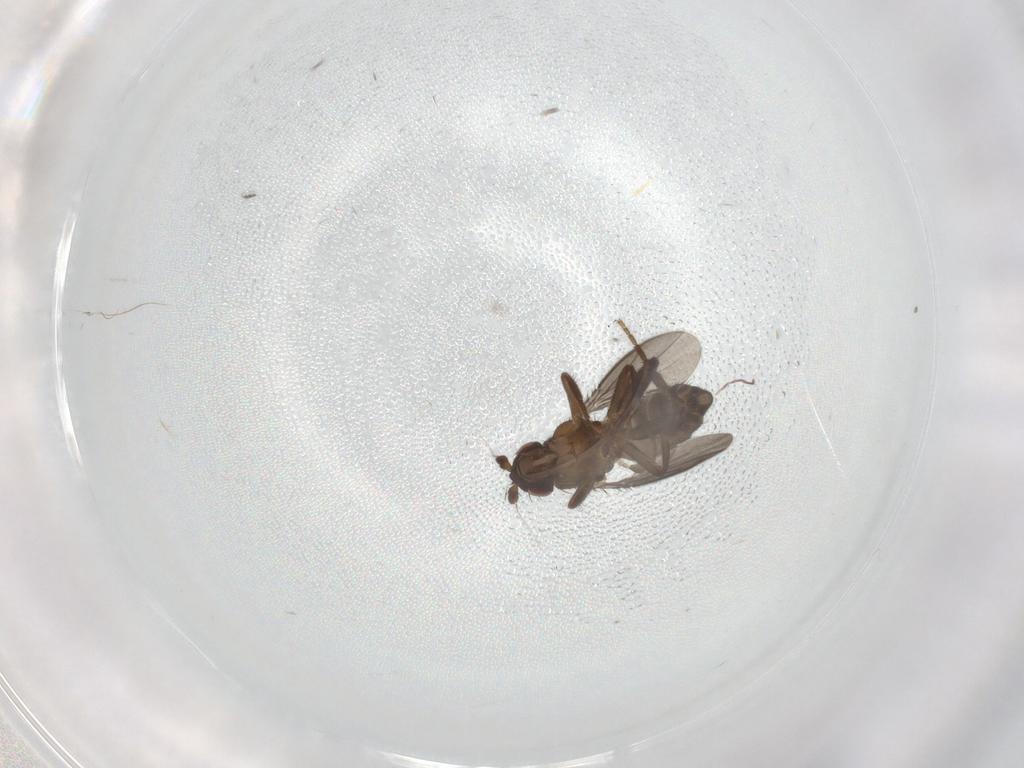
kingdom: Animalia
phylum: Arthropoda
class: Insecta
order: Diptera
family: Sphaeroceridae
